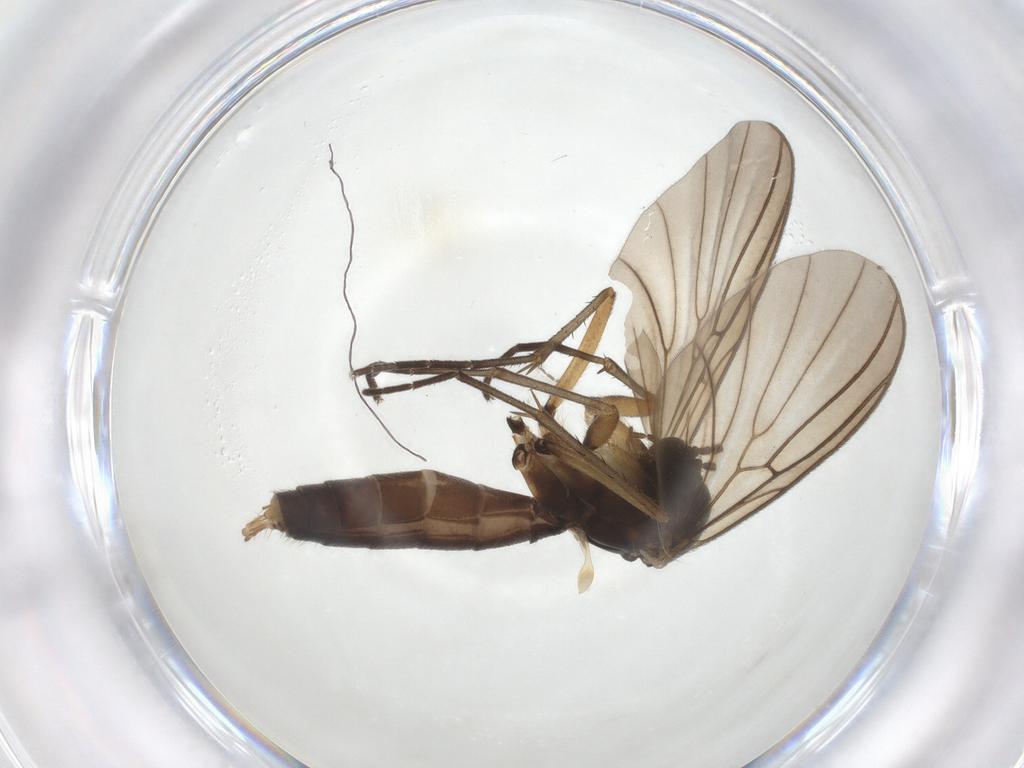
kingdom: Animalia
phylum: Arthropoda
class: Insecta
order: Diptera
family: Mycetophilidae
